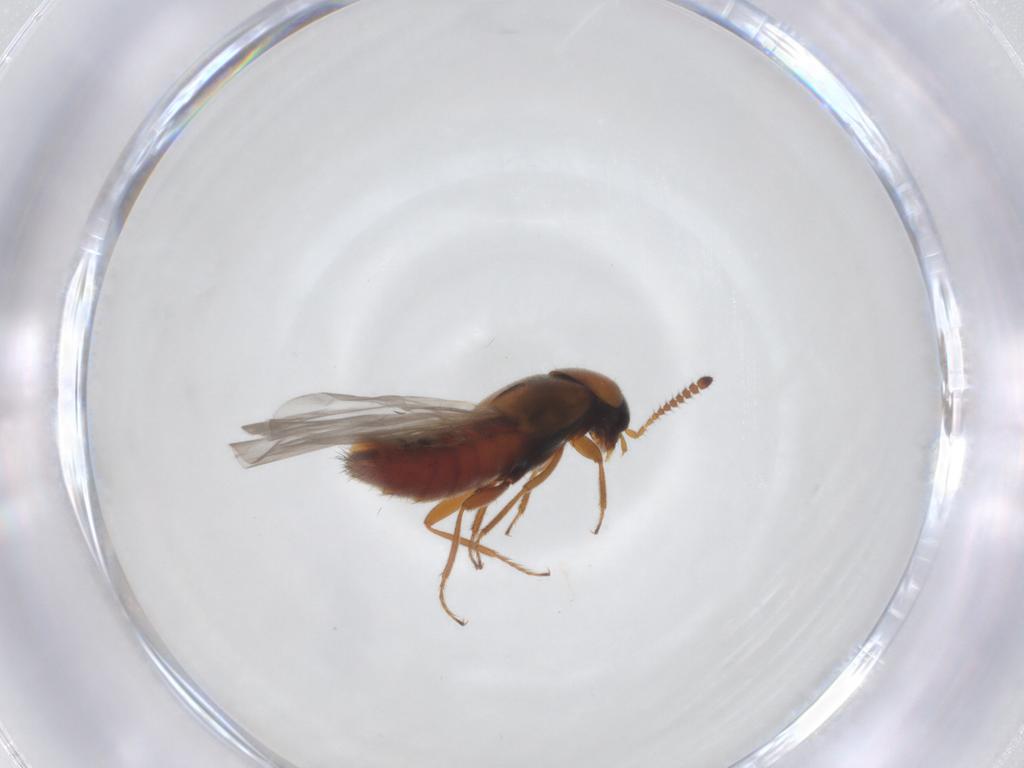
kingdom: Animalia
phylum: Arthropoda
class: Insecta
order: Coleoptera
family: Staphylinidae
